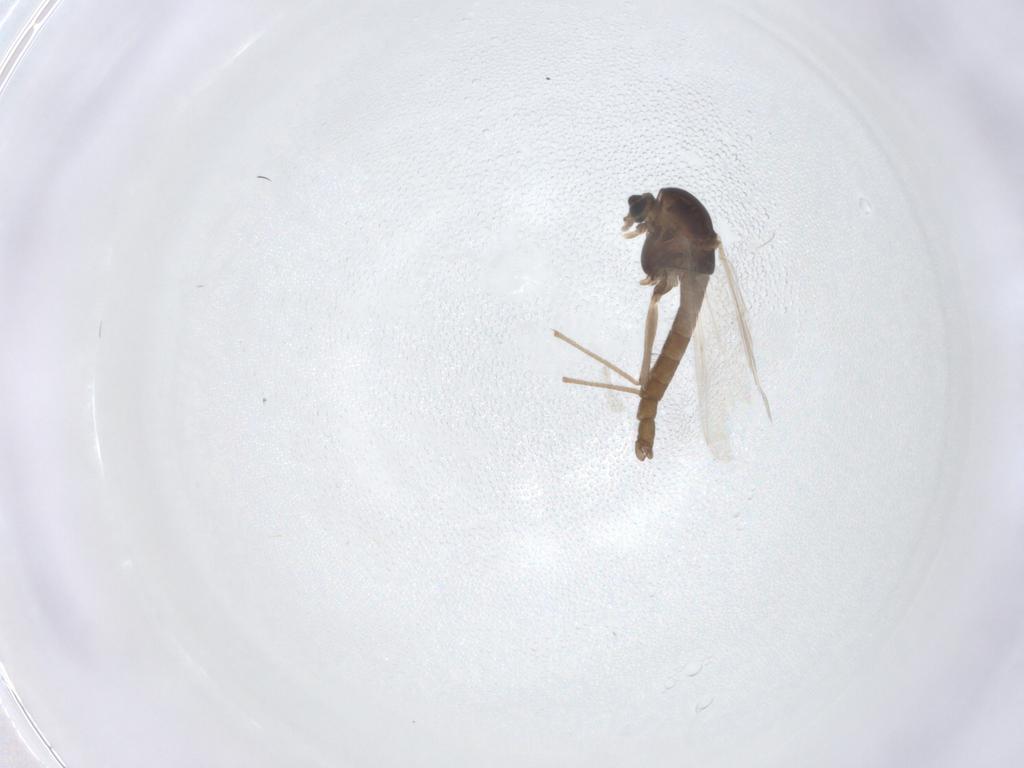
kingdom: Animalia
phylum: Arthropoda
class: Insecta
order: Diptera
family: Chironomidae
